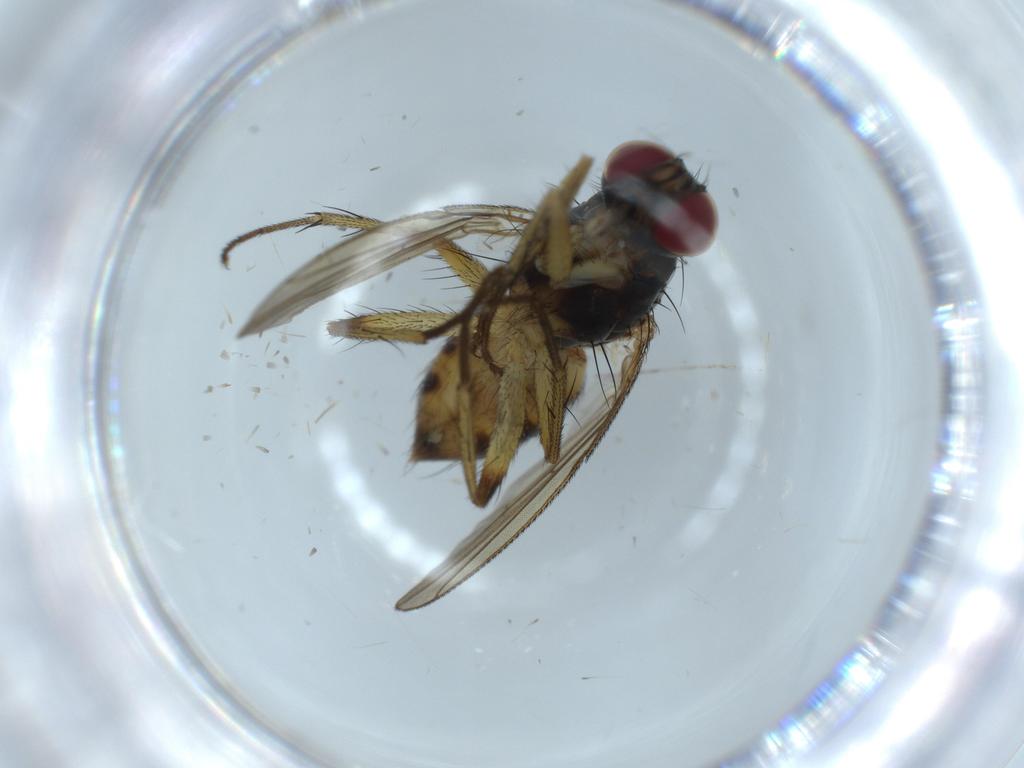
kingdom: Animalia
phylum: Arthropoda
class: Insecta
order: Diptera
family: Muscidae
